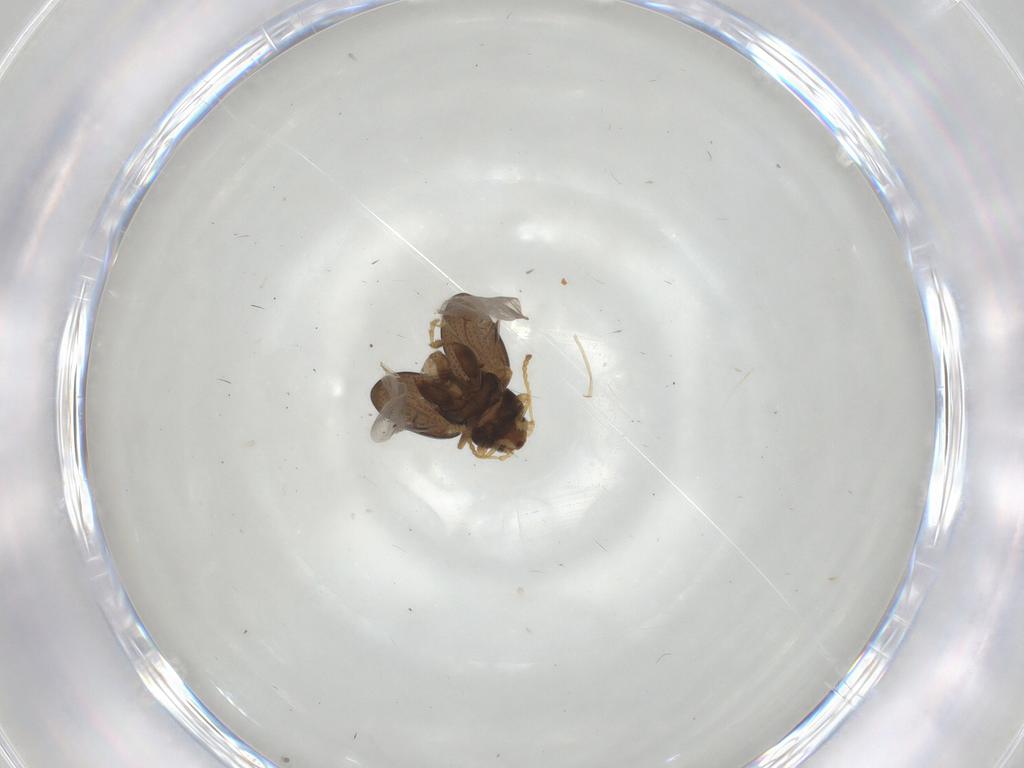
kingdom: Animalia
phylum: Arthropoda
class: Insecta
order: Coleoptera
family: Chrysomelidae
